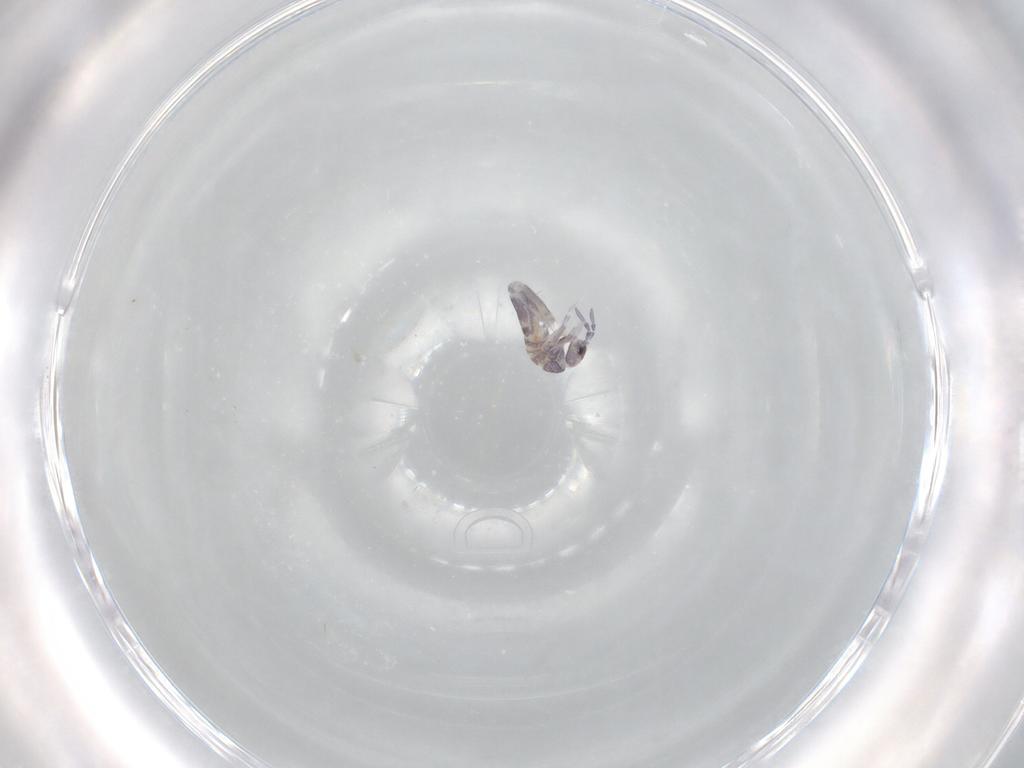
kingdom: Animalia
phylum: Arthropoda
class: Collembola
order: Entomobryomorpha
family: Entomobryidae
